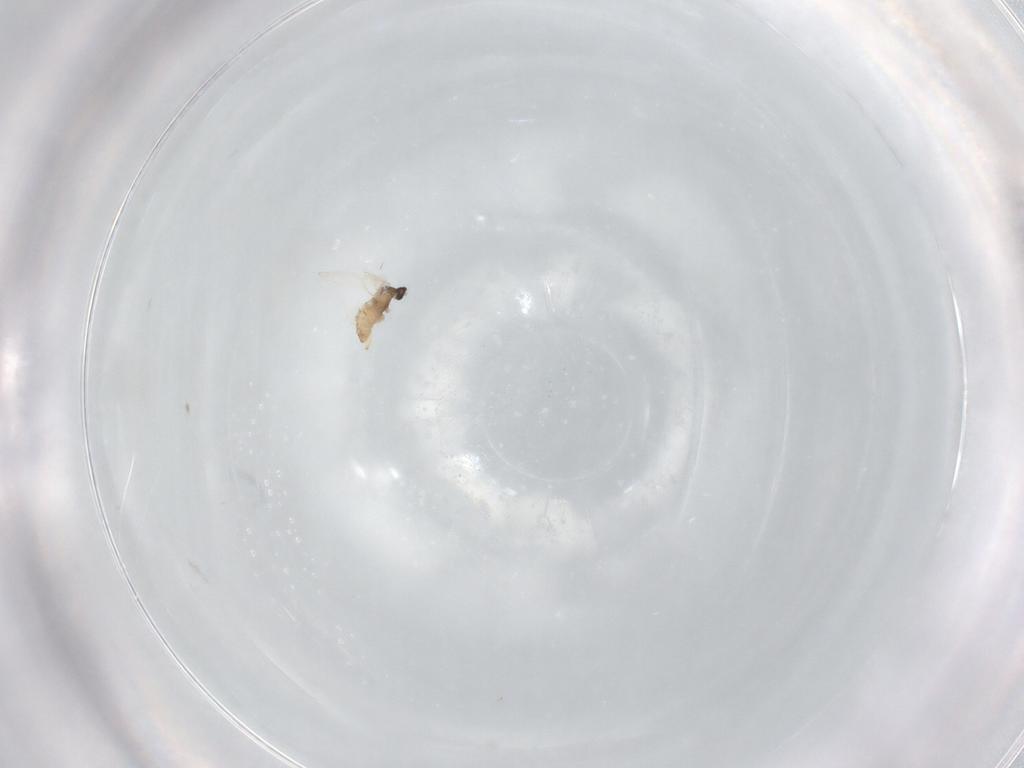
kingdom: Animalia
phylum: Arthropoda
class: Insecta
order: Diptera
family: Cecidomyiidae
